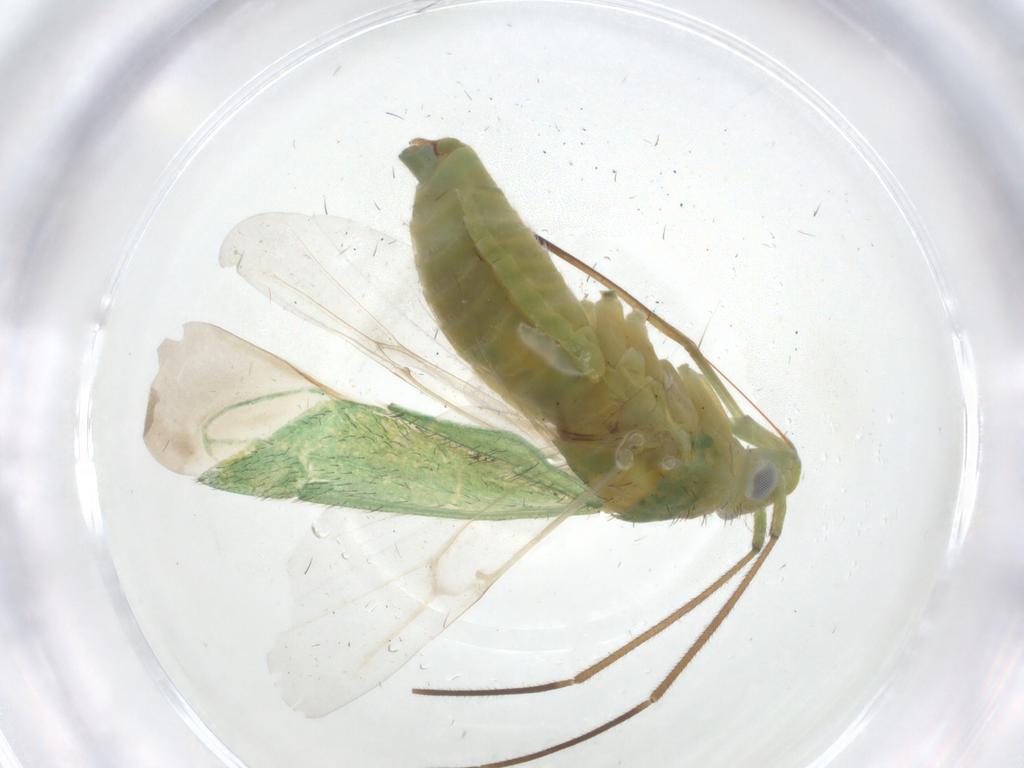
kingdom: Animalia
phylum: Arthropoda
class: Insecta
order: Hemiptera
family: Miridae
